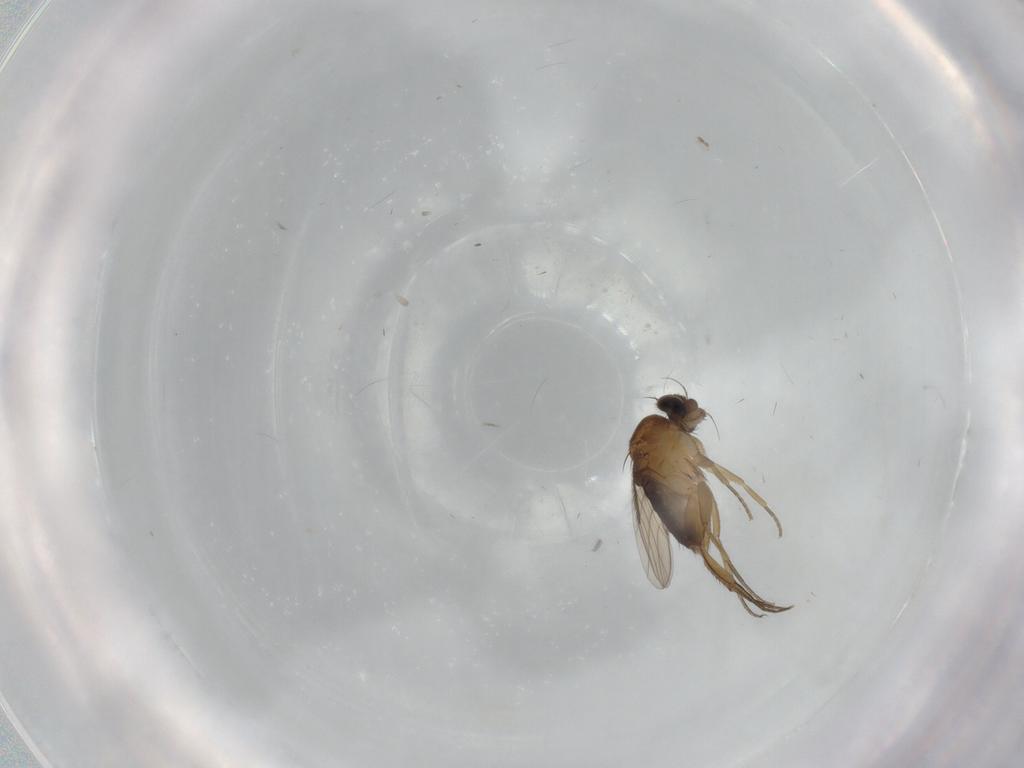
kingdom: Animalia
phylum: Arthropoda
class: Insecta
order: Diptera
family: Phoridae
